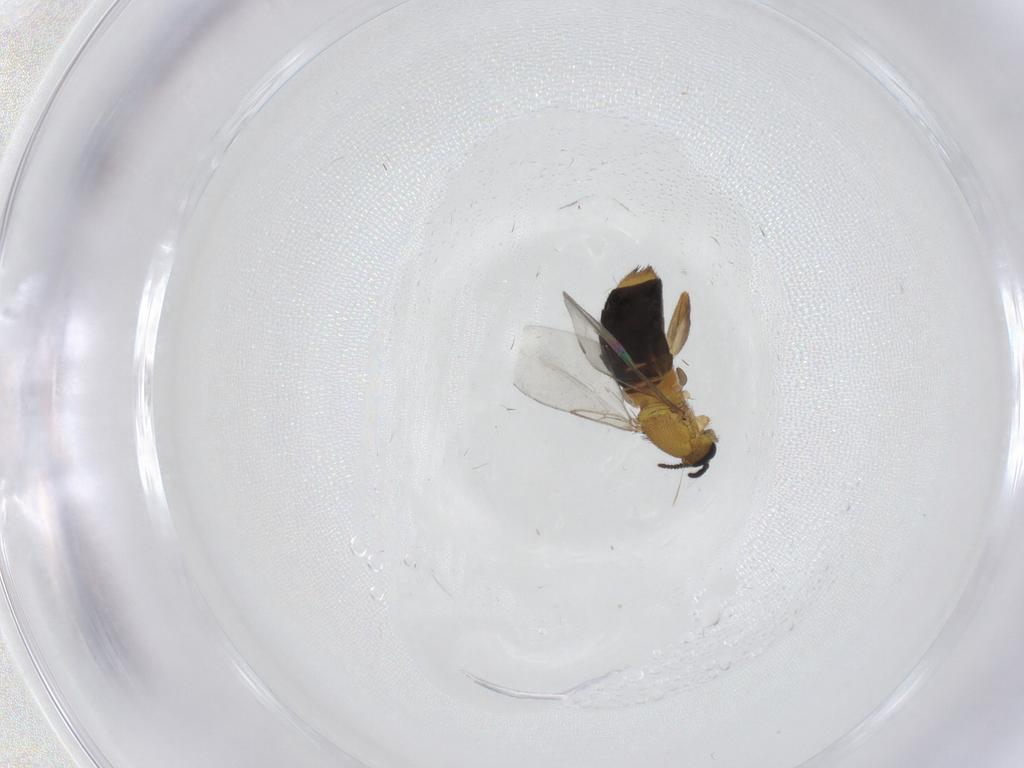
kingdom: Animalia
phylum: Arthropoda
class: Insecta
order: Diptera
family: Scatopsidae
